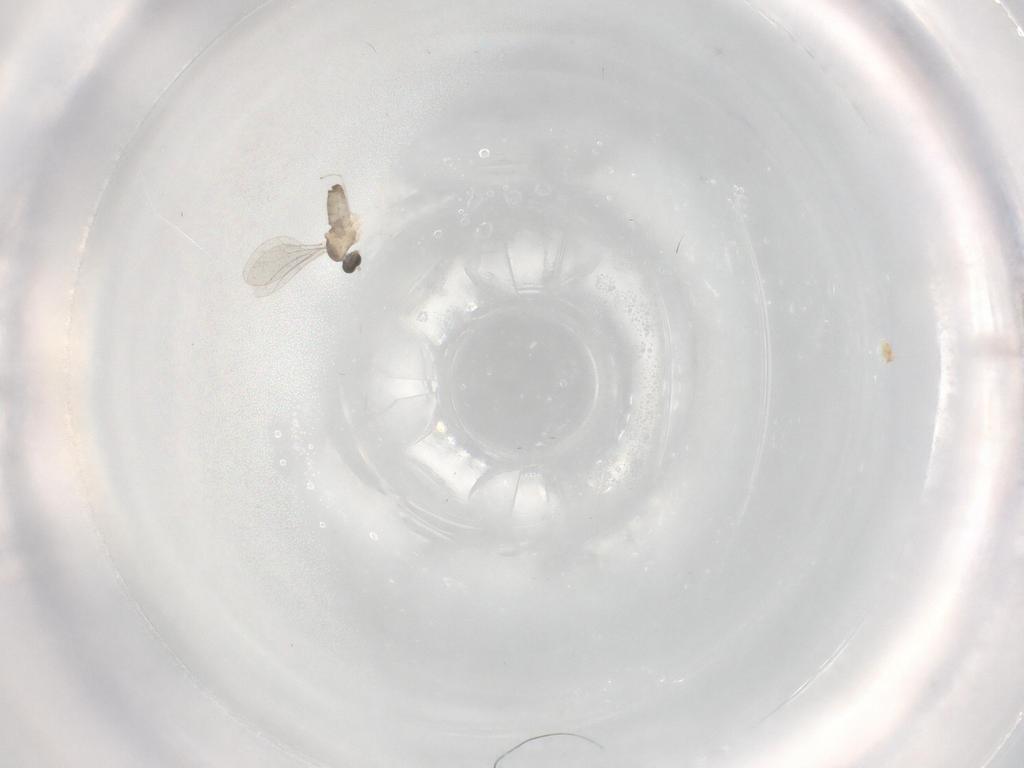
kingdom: Animalia
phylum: Arthropoda
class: Insecta
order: Diptera
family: Cecidomyiidae
